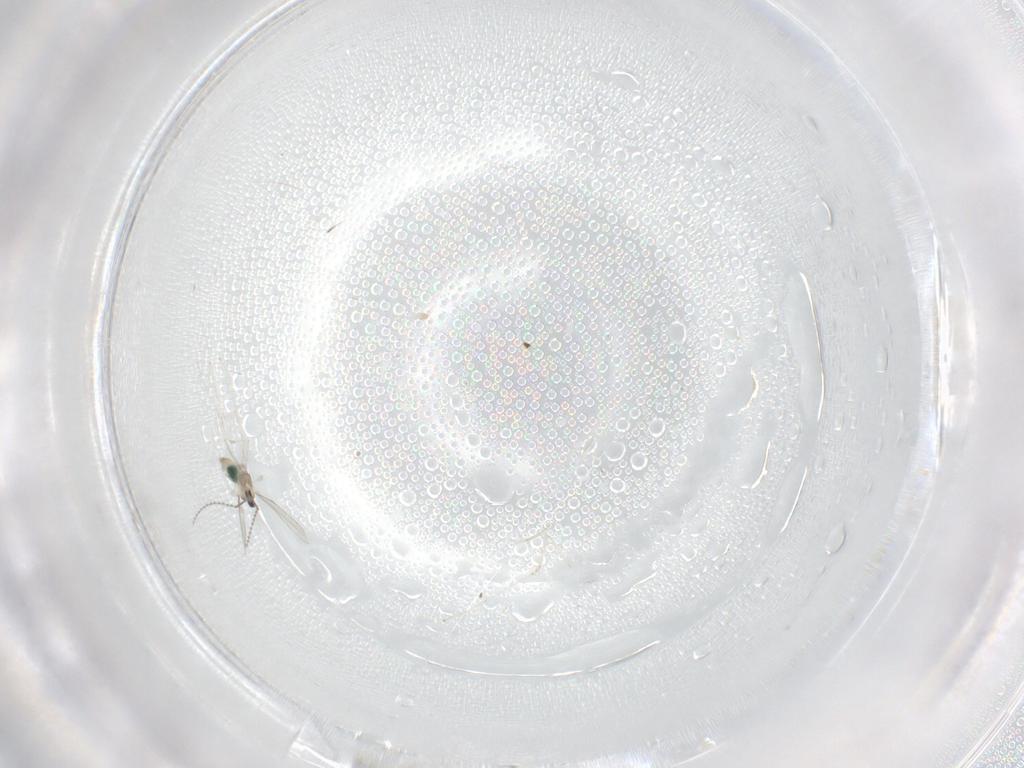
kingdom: Animalia
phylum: Arthropoda
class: Insecta
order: Diptera
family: Cecidomyiidae
